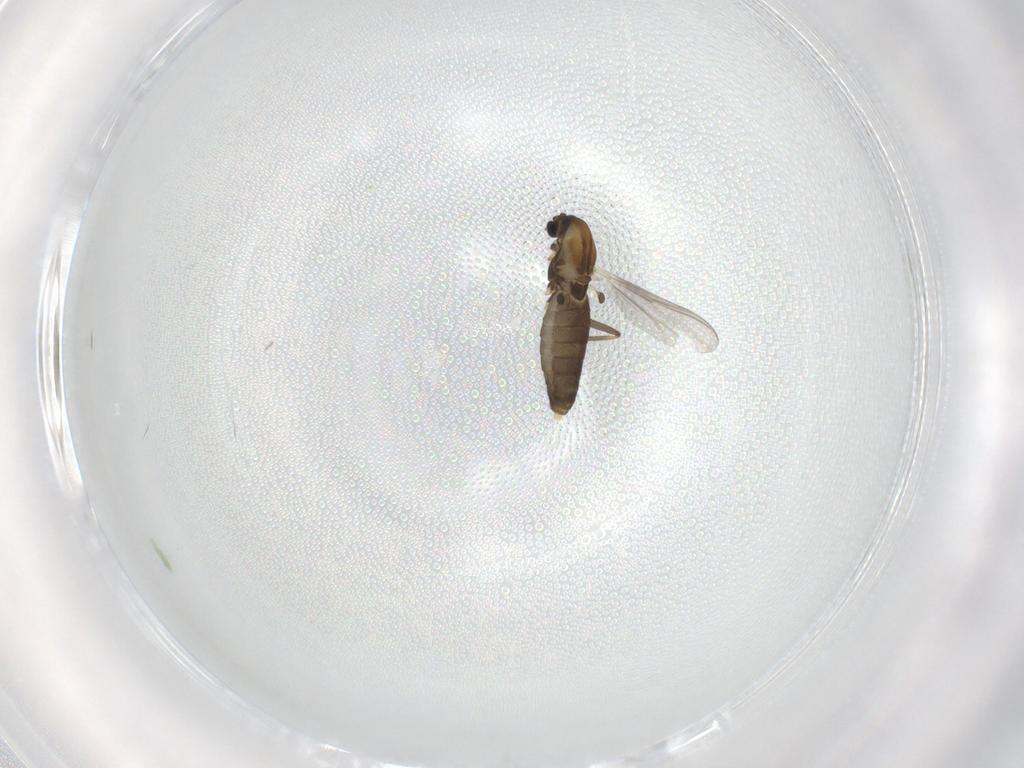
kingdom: Animalia
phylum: Arthropoda
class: Insecta
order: Diptera
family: Chironomidae
